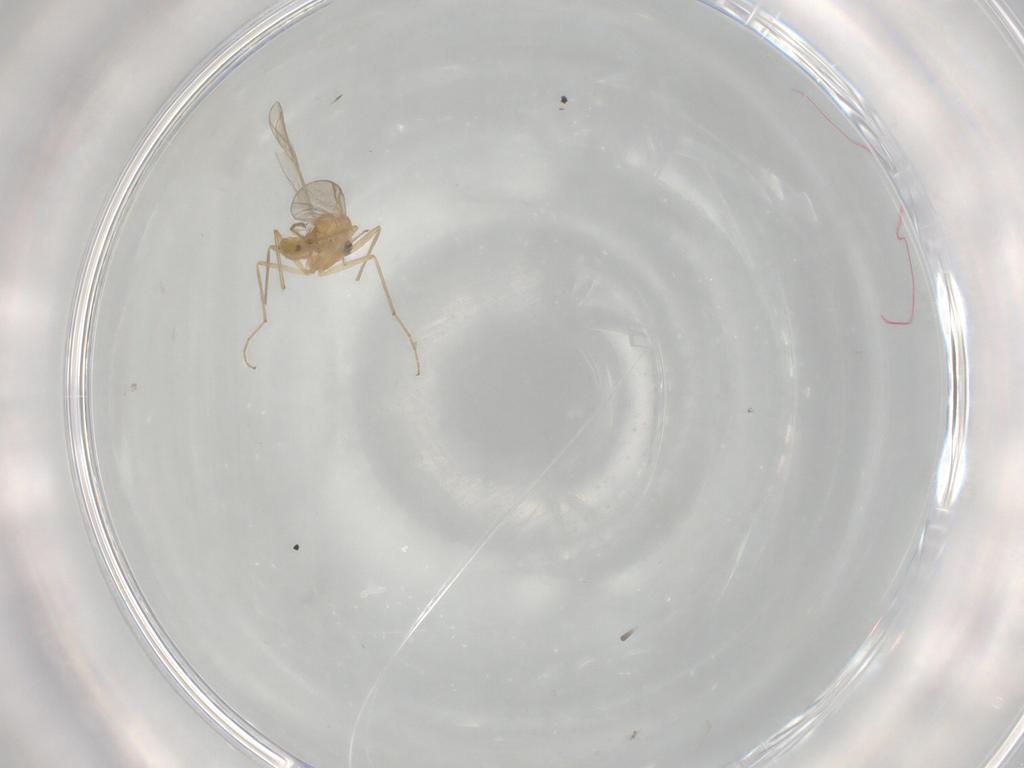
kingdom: Animalia
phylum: Arthropoda
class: Insecta
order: Diptera
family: Chironomidae
